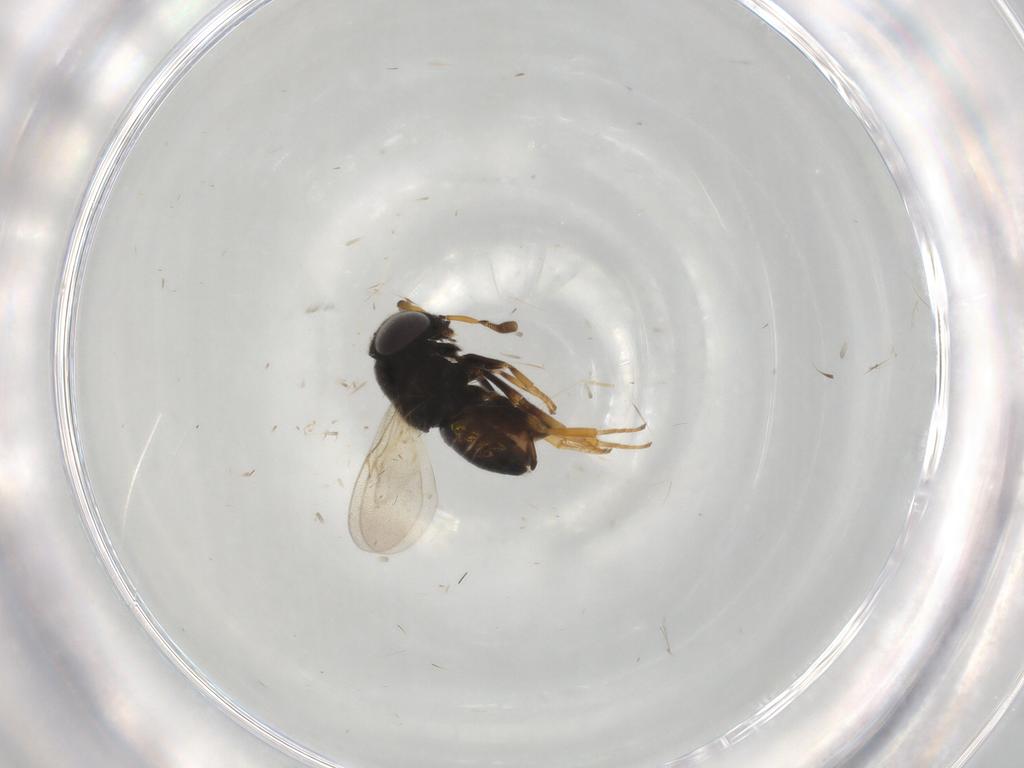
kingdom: Animalia
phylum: Arthropoda
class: Insecta
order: Hymenoptera
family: Encyrtidae
